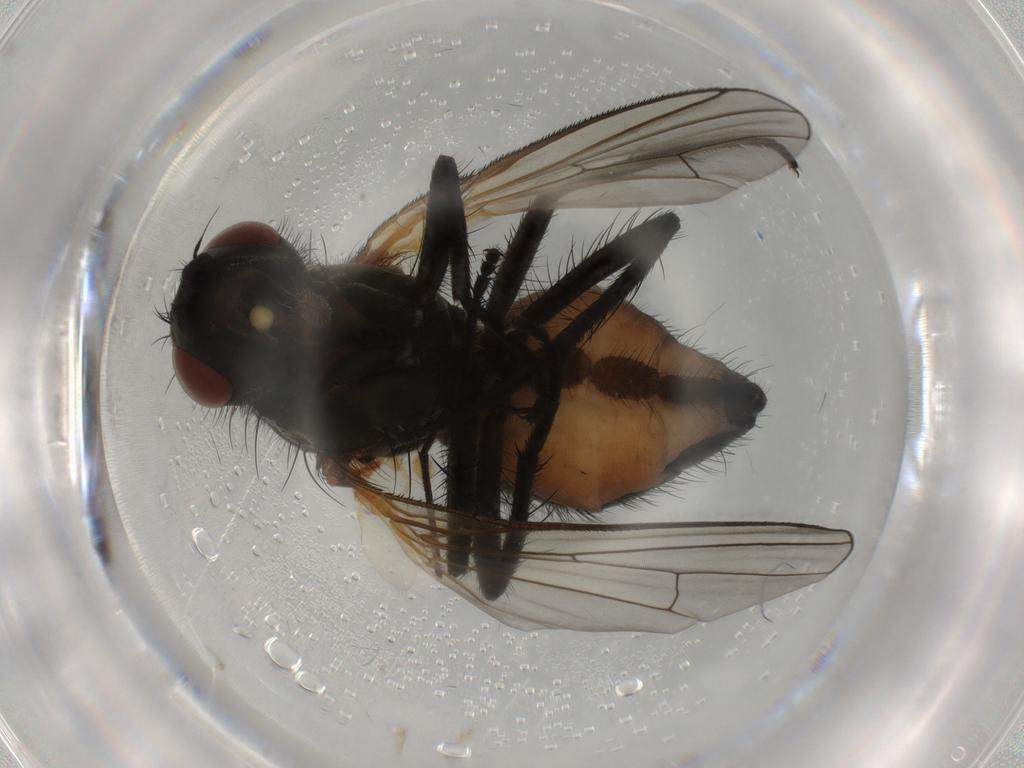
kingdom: Animalia
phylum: Arthropoda
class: Insecta
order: Diptera
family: Anthomyiidae
